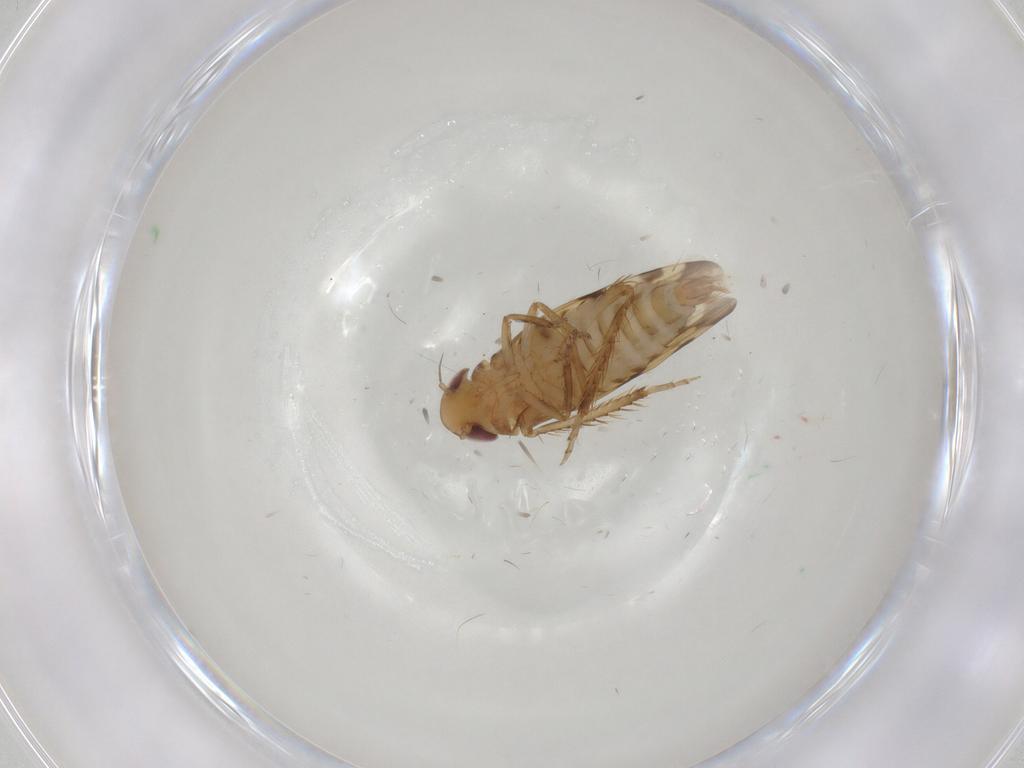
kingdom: Animalia
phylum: Arthropoda
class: Insecta
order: Hemiptera
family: Cicadellidae
